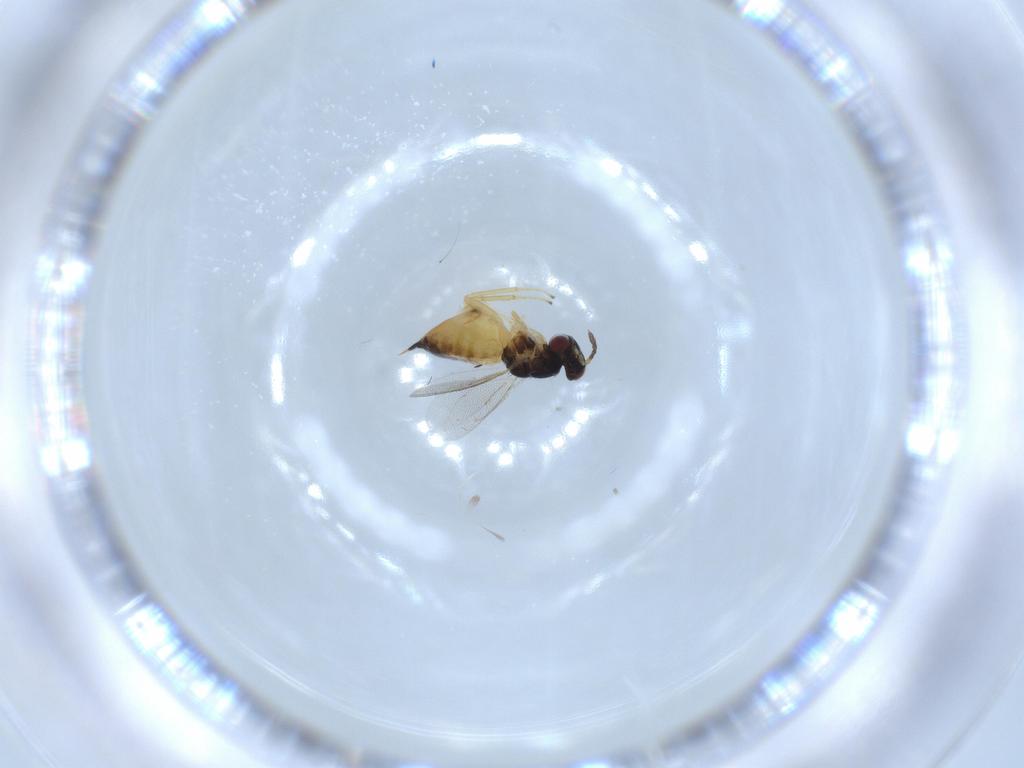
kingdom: Animalia
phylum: Arthropoda
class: Insecta
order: Hymenoptera
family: Eulophidae
